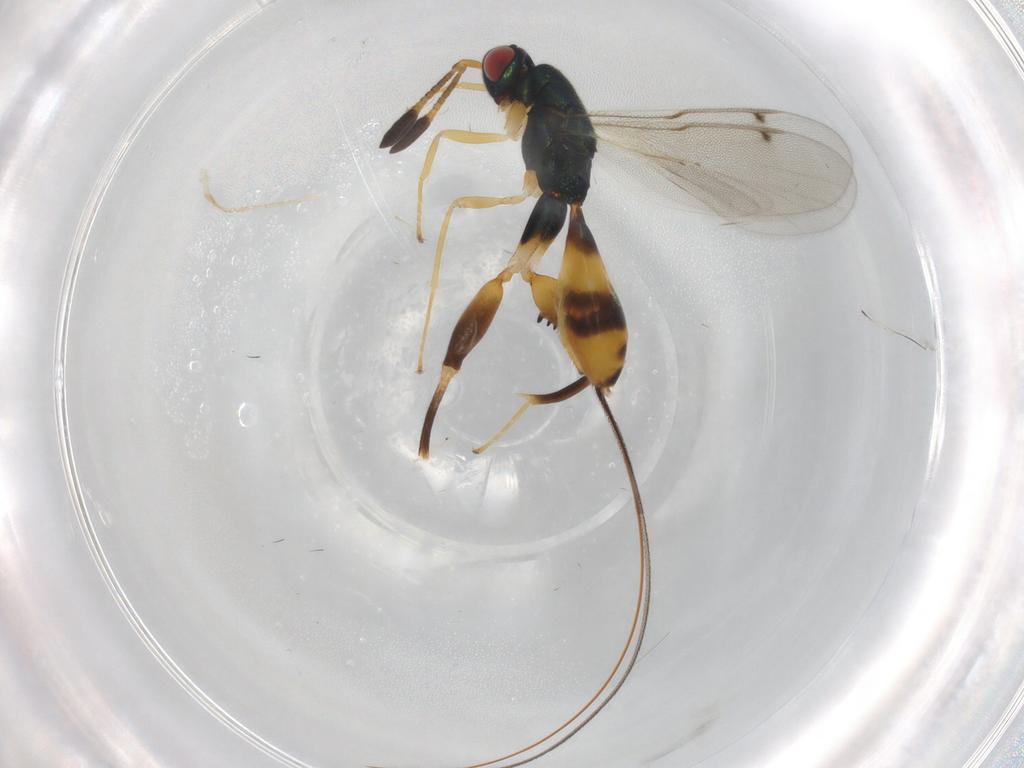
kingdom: Animalia
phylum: Arthropoda
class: Insecta
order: Hymenoptera
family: Torymidae
